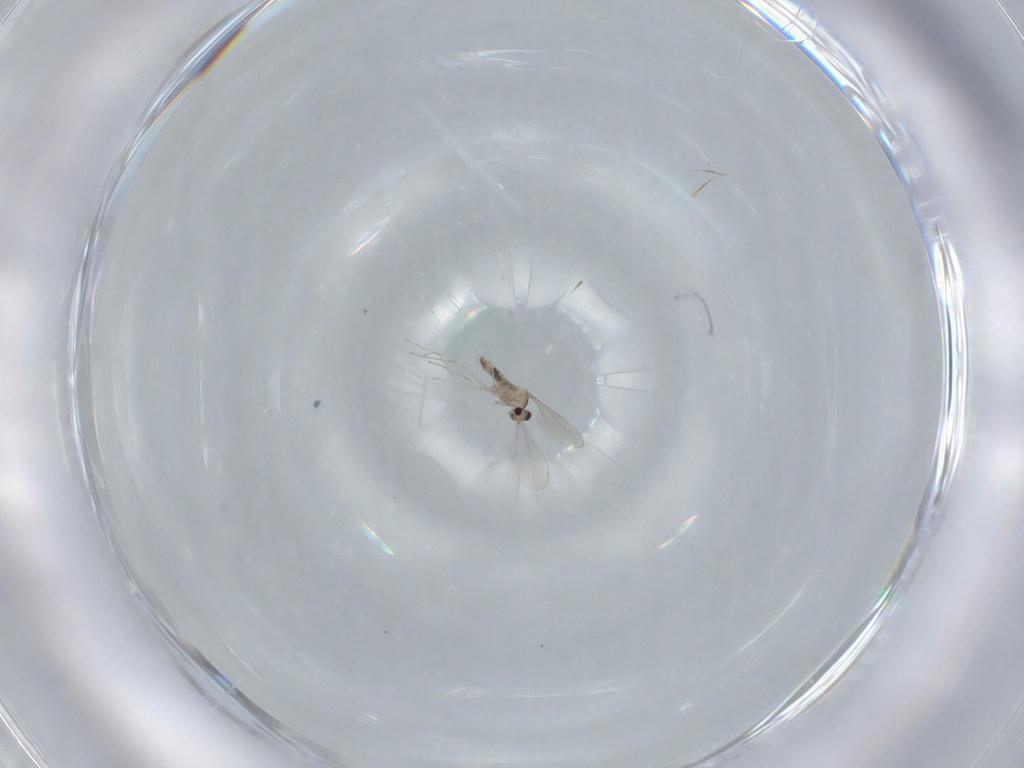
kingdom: Animalia
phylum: Arthropoda
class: Insecta
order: Diptera
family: Cecidomyiidae
